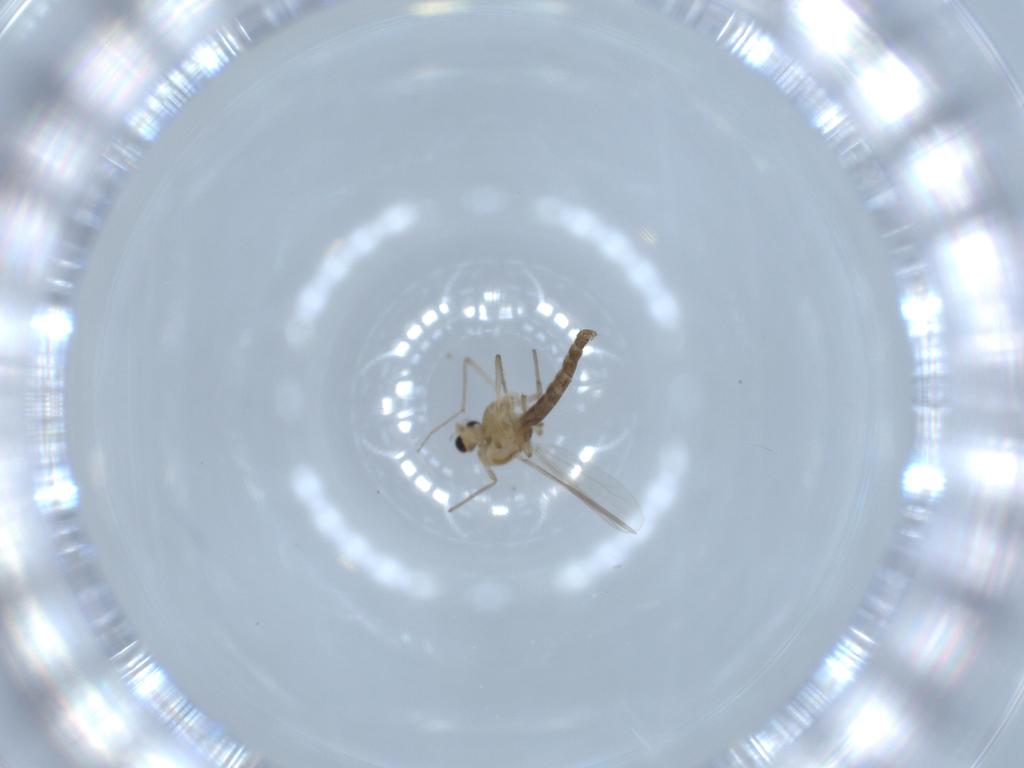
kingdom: Animalia
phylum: Arthropoda
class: Insecta
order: Diptera
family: Chironomidae
